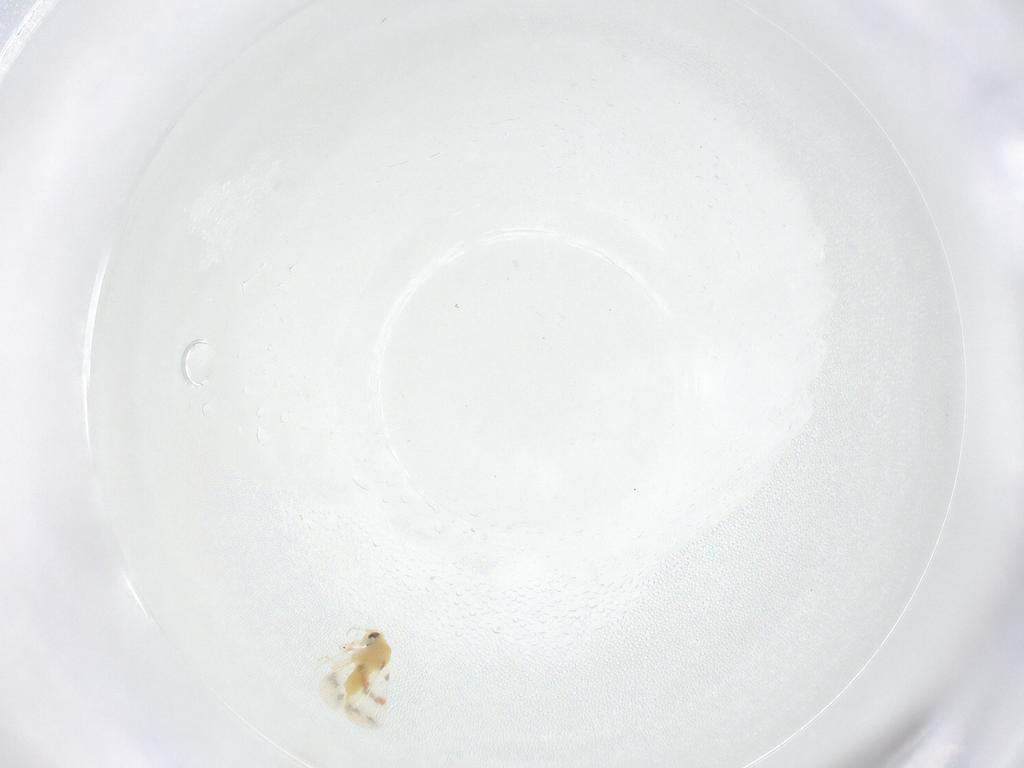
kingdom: Animalia
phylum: Arthropoda
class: Insecta
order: Hemiptera
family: Aleyrodidae
